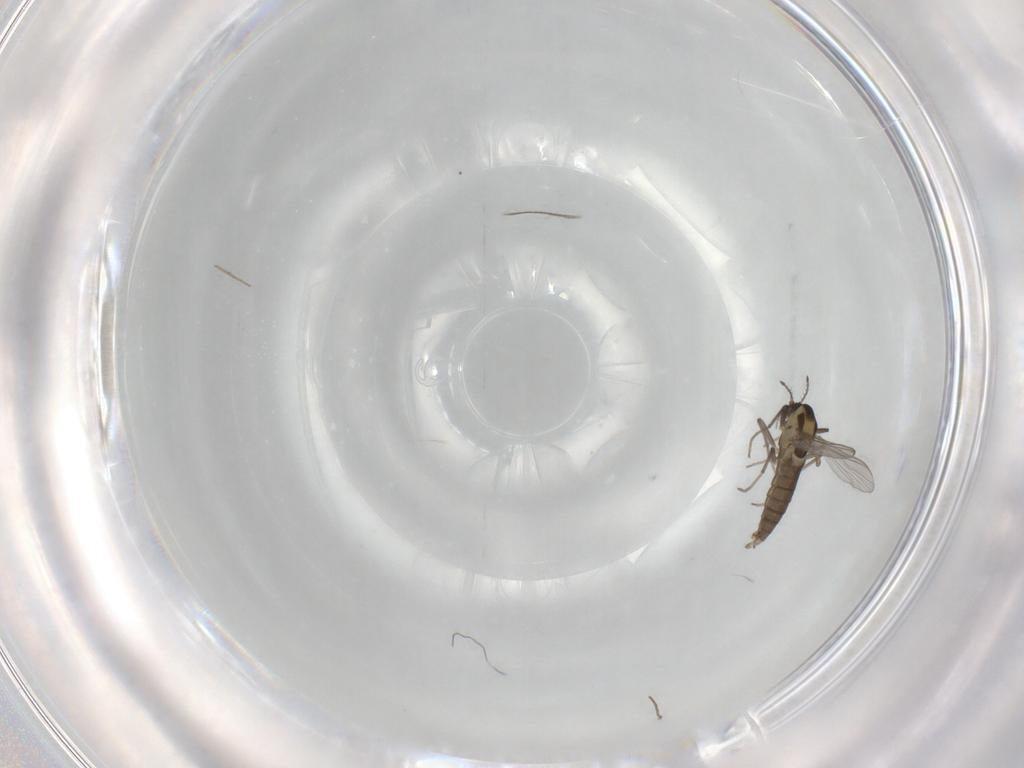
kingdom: Animalia
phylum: Arthropoda
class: Insecta
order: Diptera
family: Chironomidae
